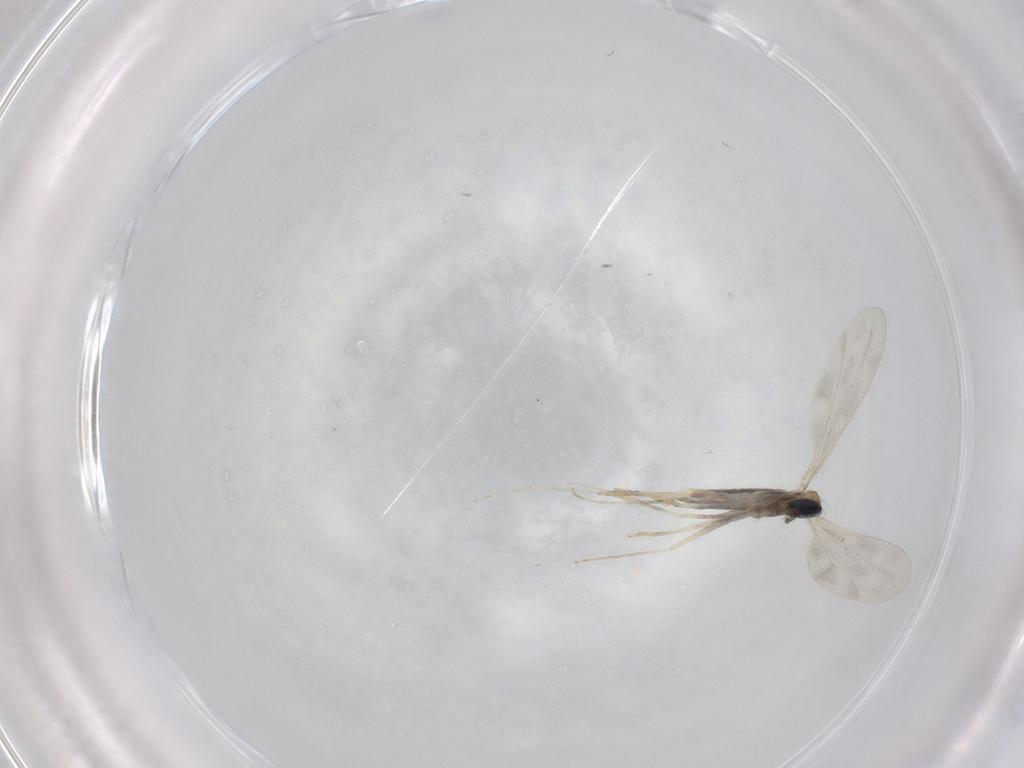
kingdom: Animalia
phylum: Arthropoda
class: Insecta
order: Diptera
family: Cecidomyiidae
